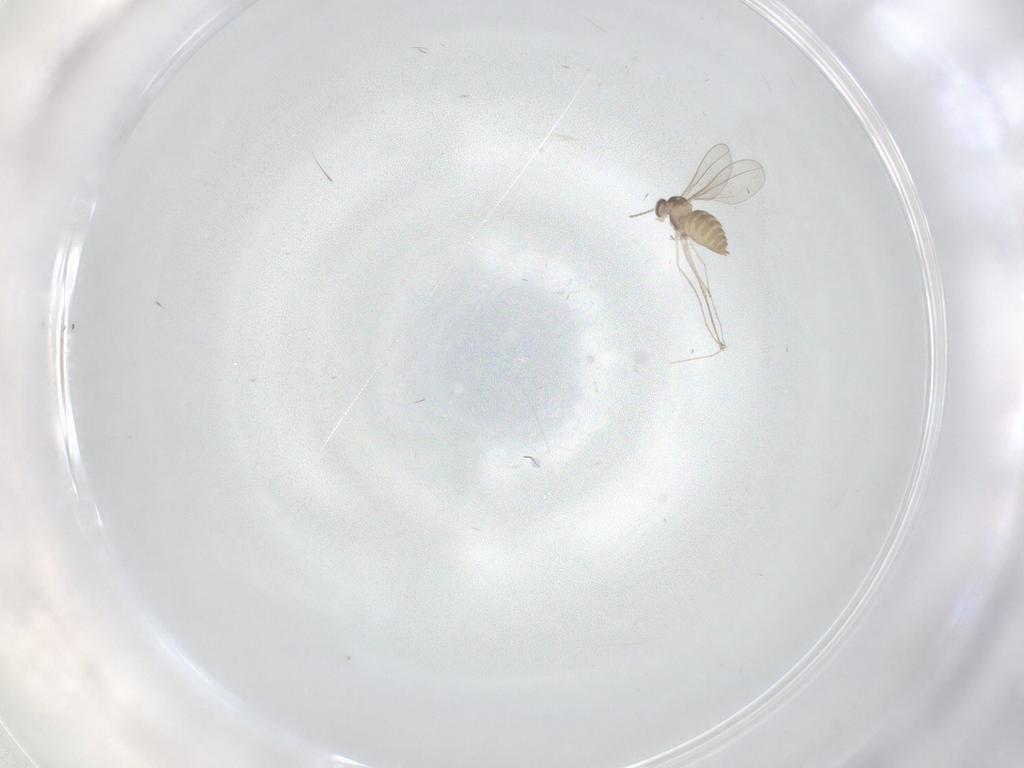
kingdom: Animalia
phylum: Arthropoda
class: Insecta
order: Diptera
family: Cecidomyiidae
